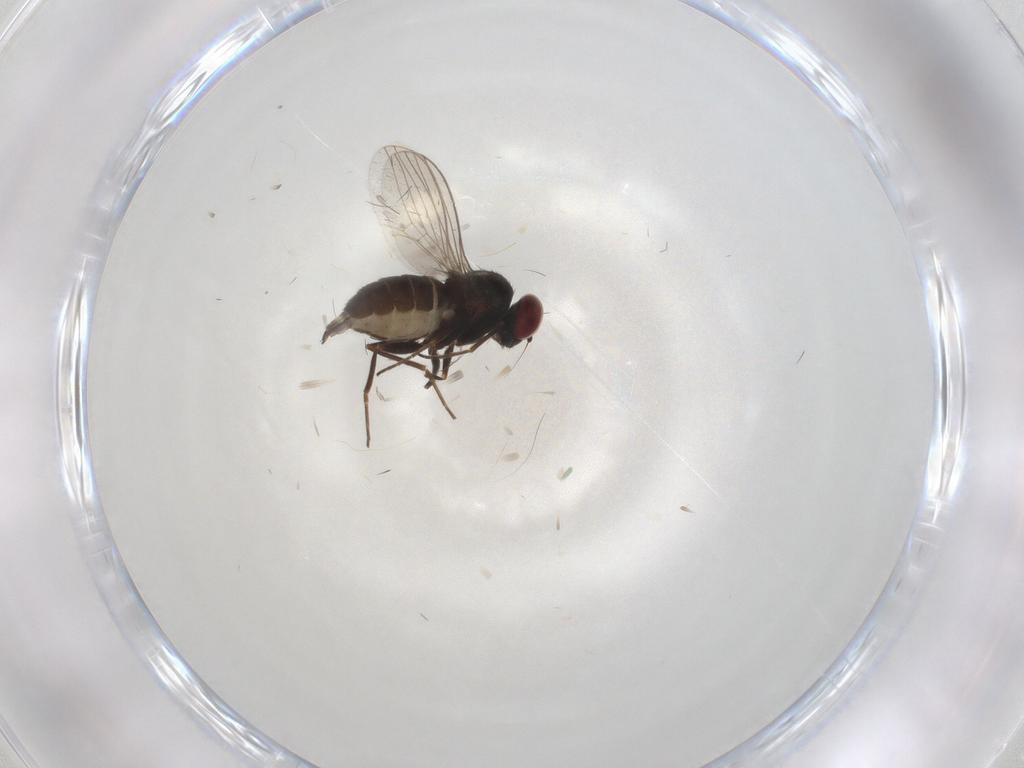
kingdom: Animalia
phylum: Arthropoda
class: Insecta
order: Diptera
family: Dolichopodidae
